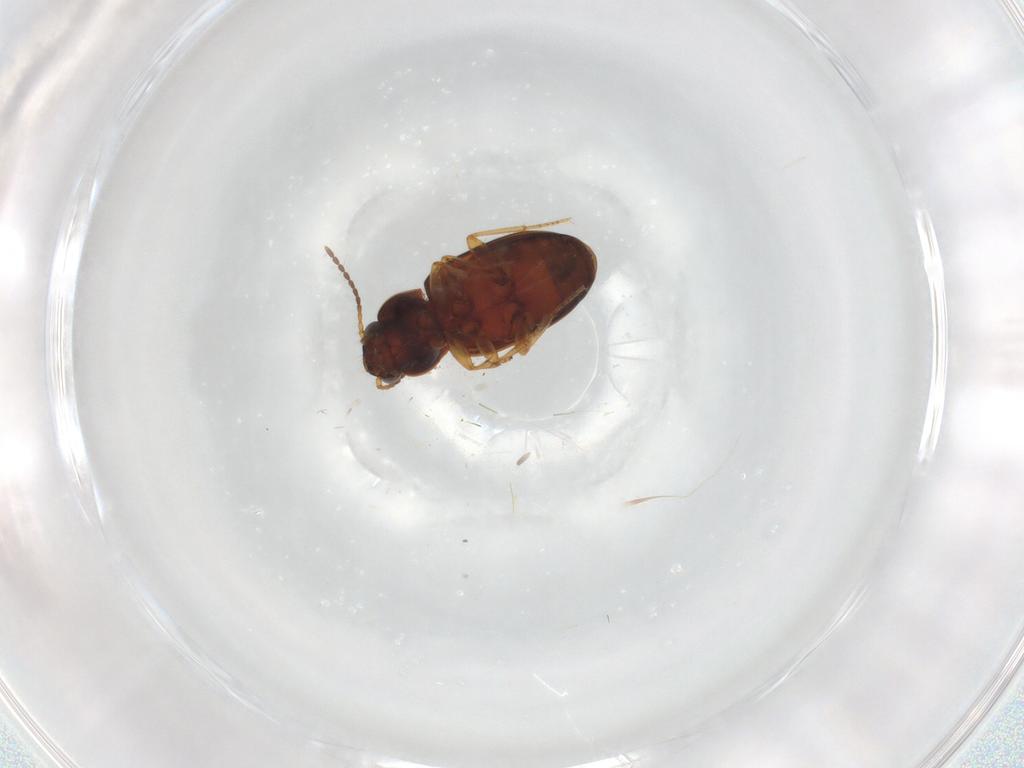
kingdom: Animalia
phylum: Arthropoda
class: Insecta
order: Coleoptera
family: Carabidae
